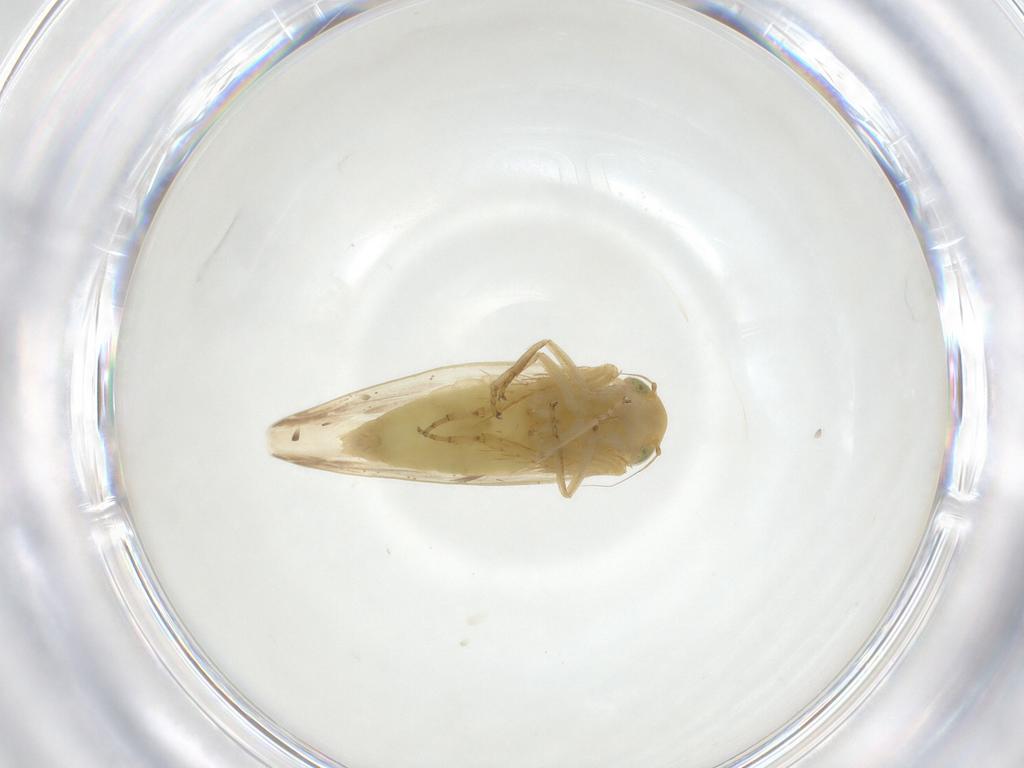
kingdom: Animalia
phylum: Arthropoda
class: Insecta
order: Hemiptera
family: Cicadellidae
